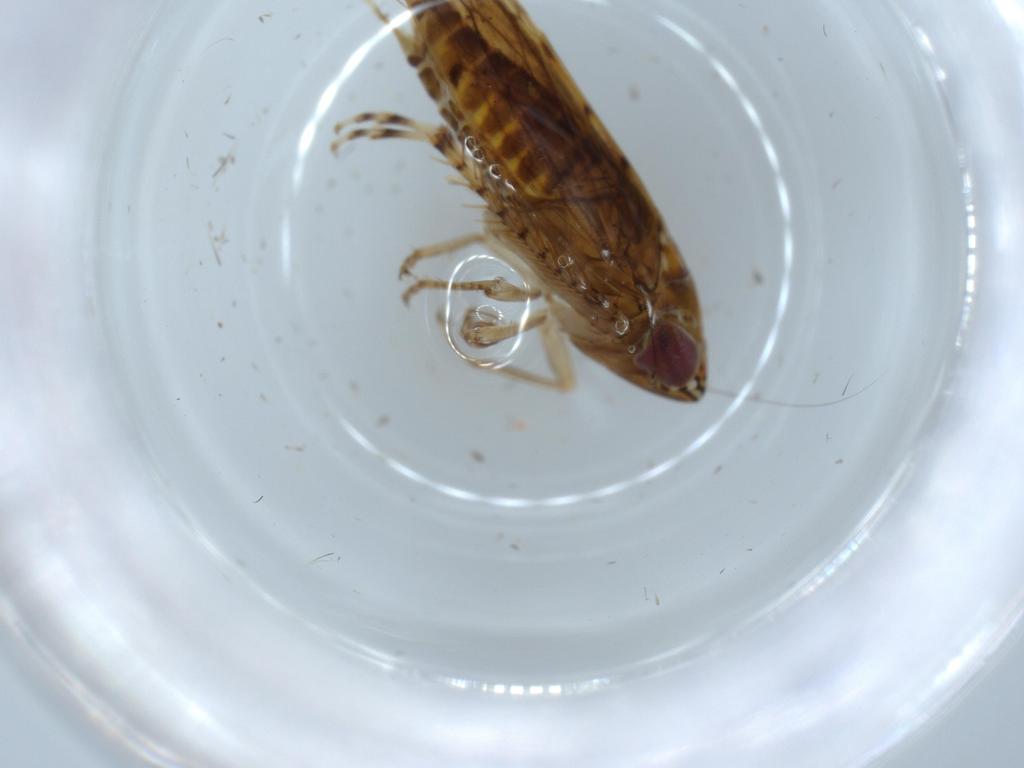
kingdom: Animalia
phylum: Arthropoda
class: Insecta
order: Hemiptera
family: Cicadellidae
